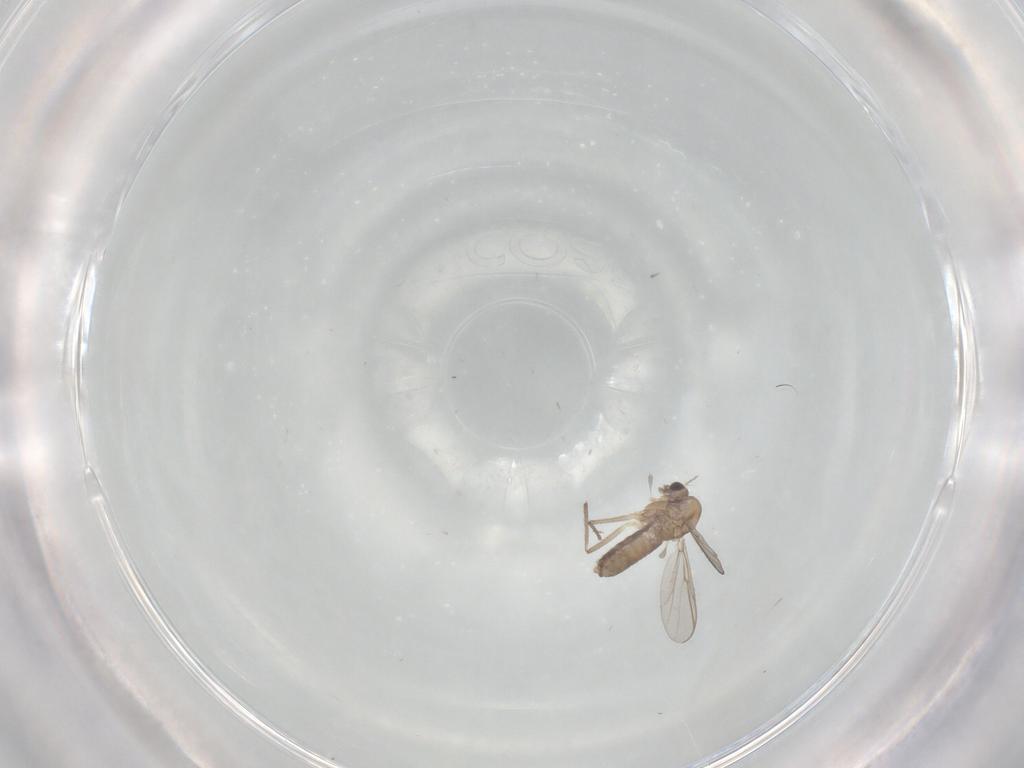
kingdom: Animalia
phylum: Arthropoda
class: Insecta
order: Diptera
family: Chironomidae
